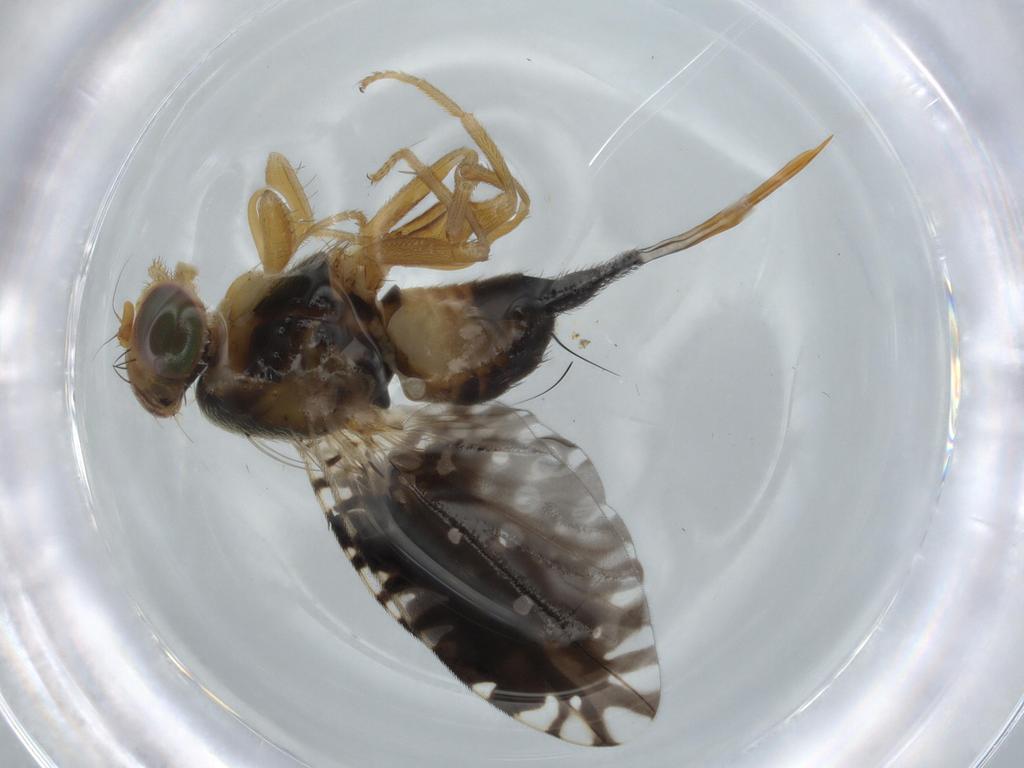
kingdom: Animalia
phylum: Arthropoda
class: Insecta
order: Diptera
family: Tephritidae
